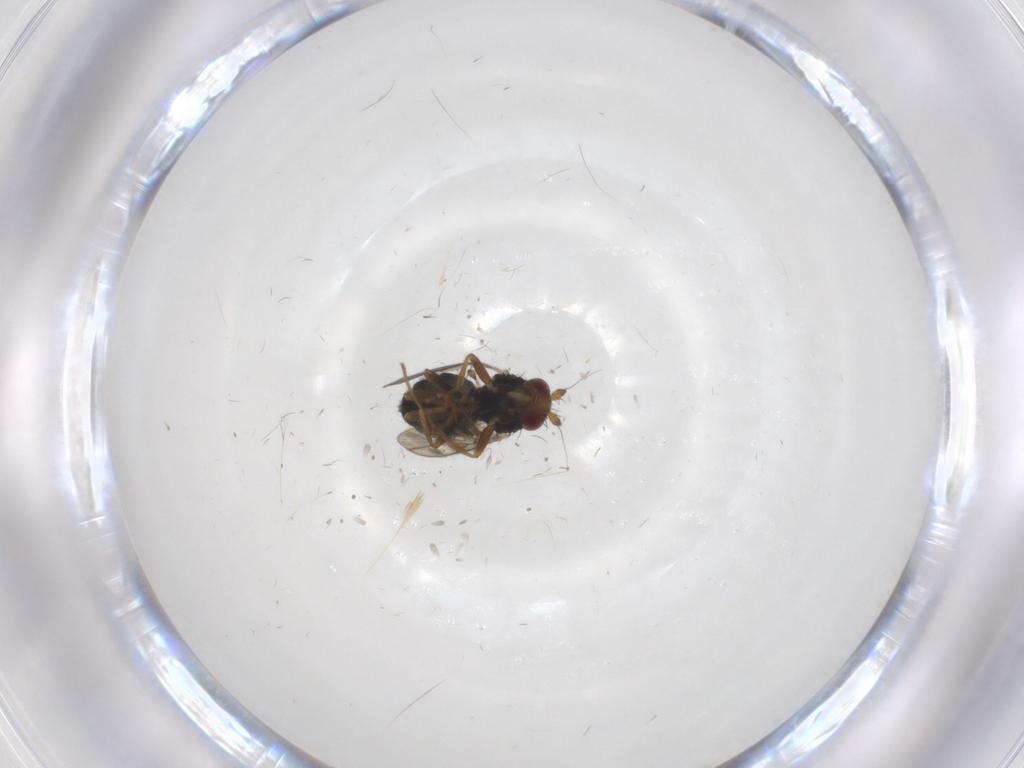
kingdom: Animalia
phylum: Arthropoda
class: Insecta
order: Diptera
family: Sphaeroceridae
